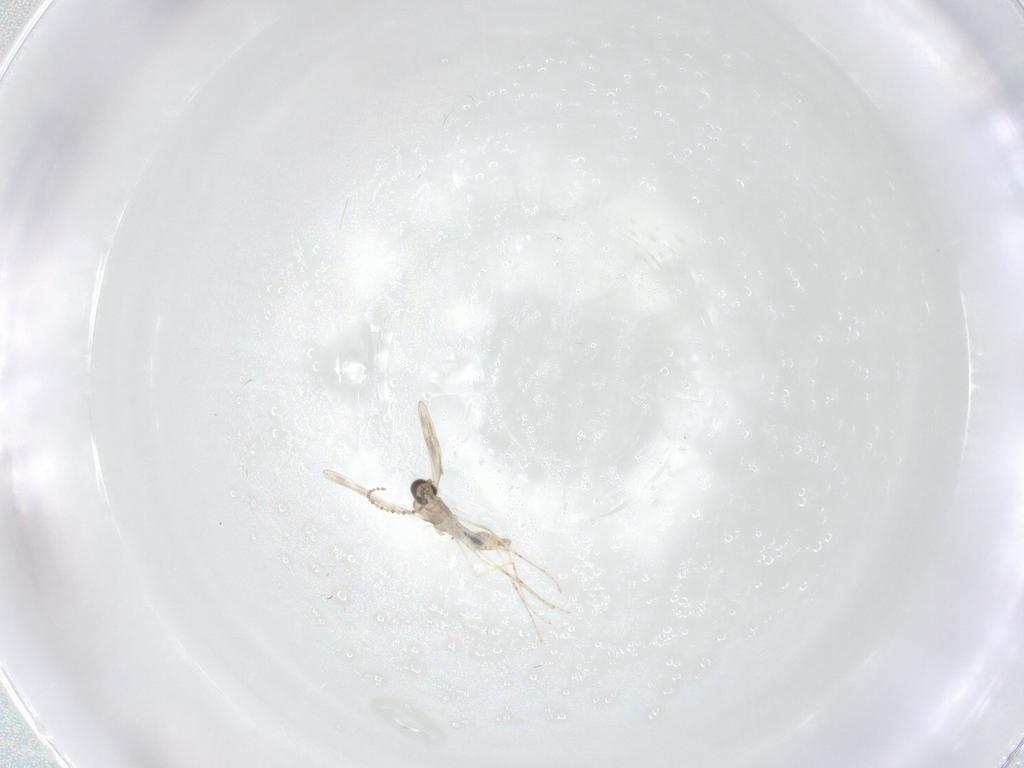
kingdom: Animalia
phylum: Arthropoda
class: Insecta
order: Diptera
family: Cecidomyiidae
